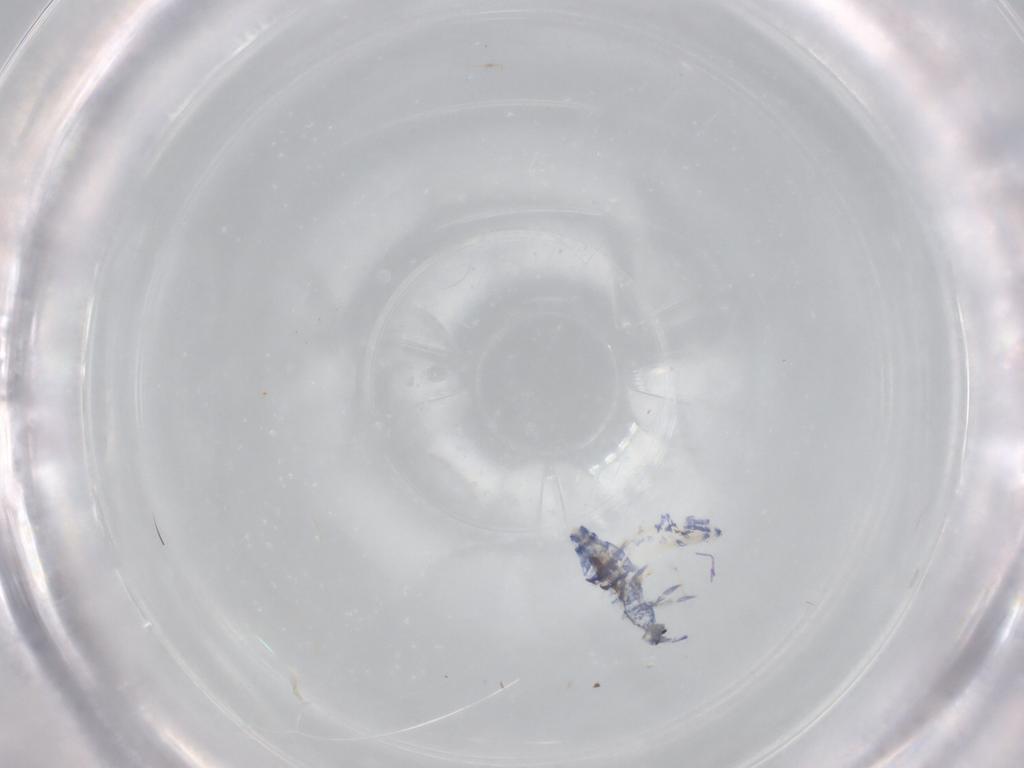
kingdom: Animalia
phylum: Arthropoda
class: Collembola
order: Entomobryomorpha
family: Entomobryidae
